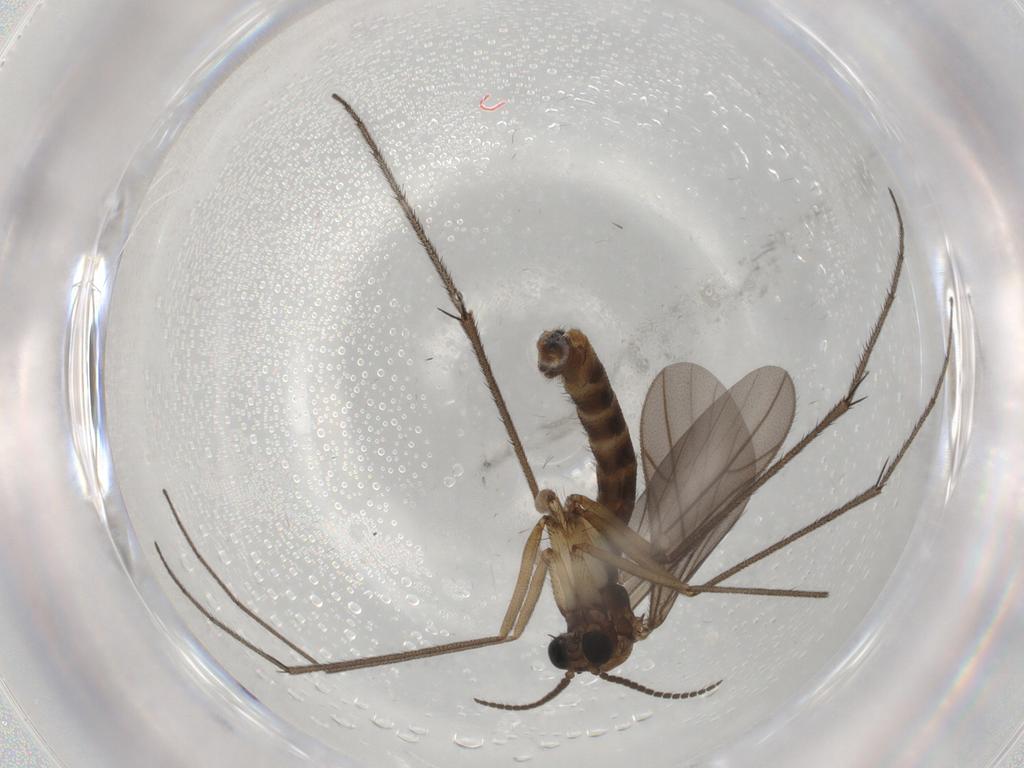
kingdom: Animalia
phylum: Arthropoda
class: Insecta
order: Diptera
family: Ditomyiidae
